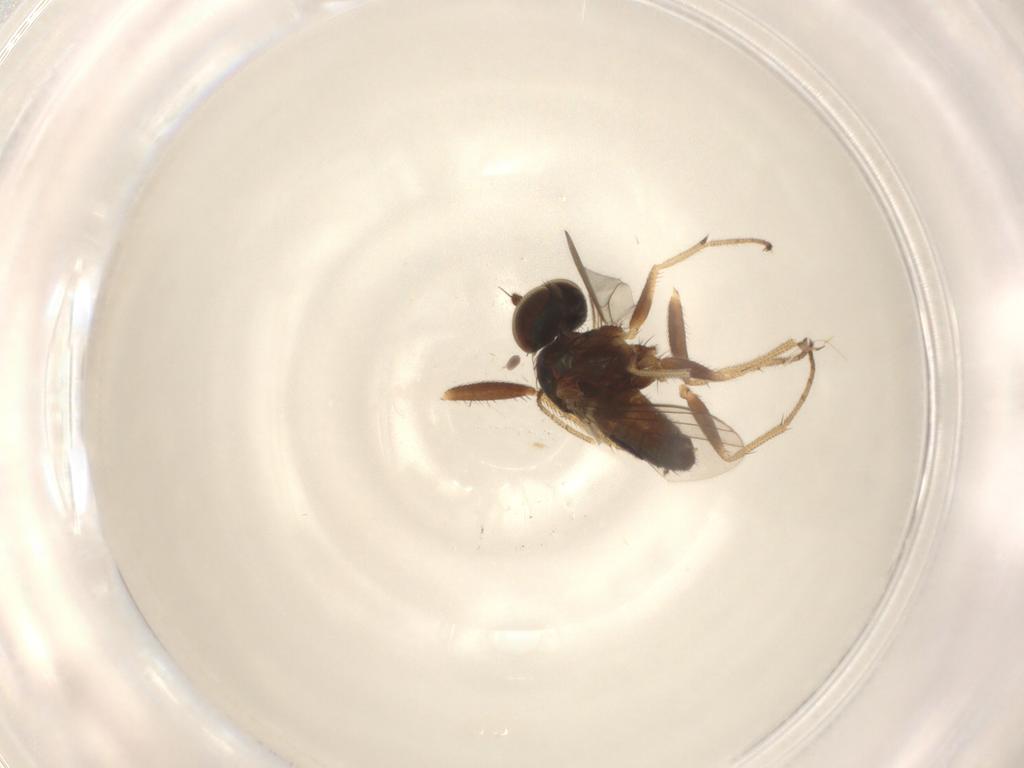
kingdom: Animalia
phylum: Arthropoda
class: Insecta
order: Diptera
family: Dolichopodidae
